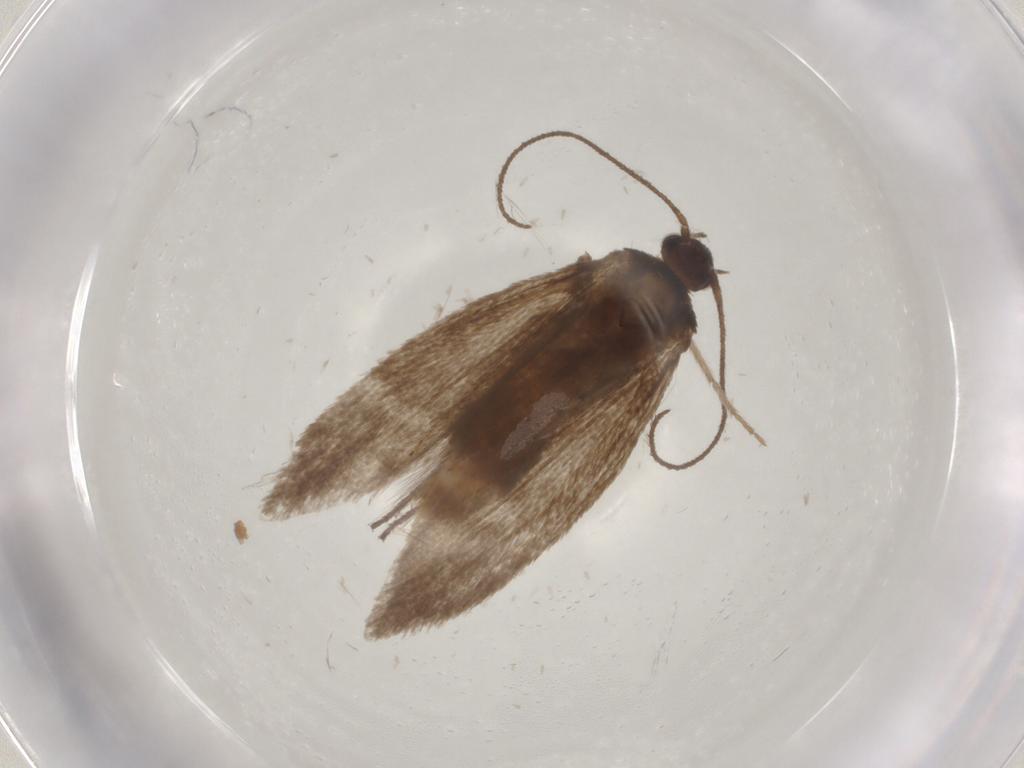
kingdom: Animalia
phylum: Arthropoda
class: Insecta
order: Lepidoptera
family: Limacodidae
